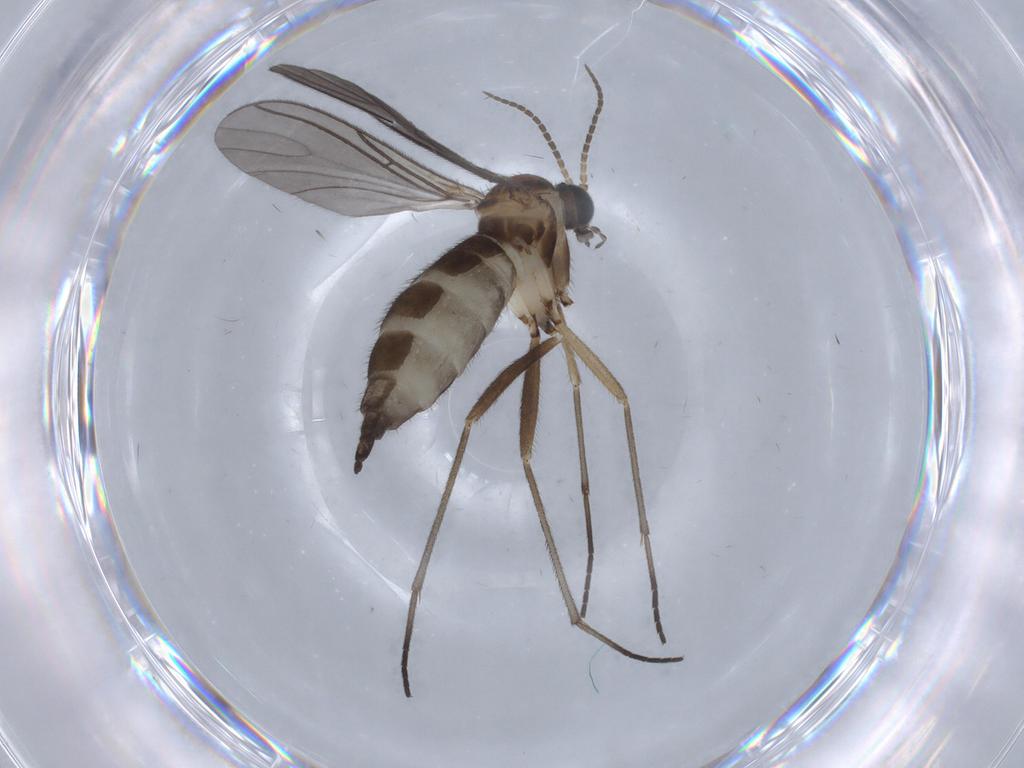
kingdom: Animalia
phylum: Arthropoda
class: Insecta
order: Diptera
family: Sciaridae
